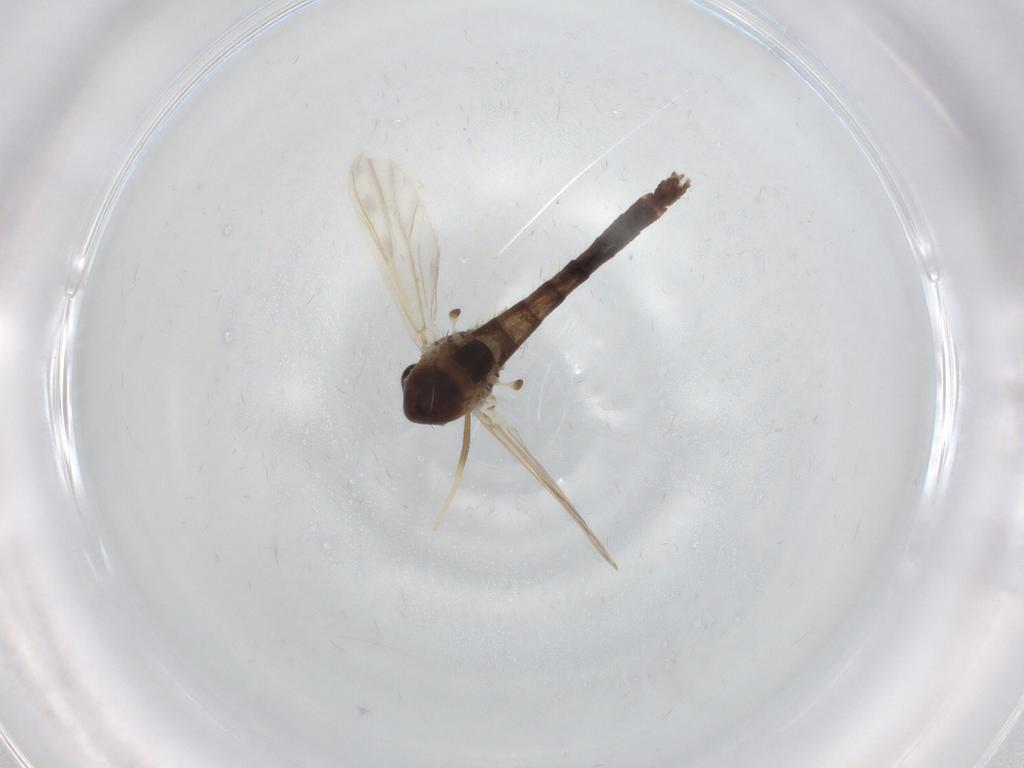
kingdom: Animalia
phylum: Arthropoda
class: Insecta
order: Diptera
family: Chironomidae
